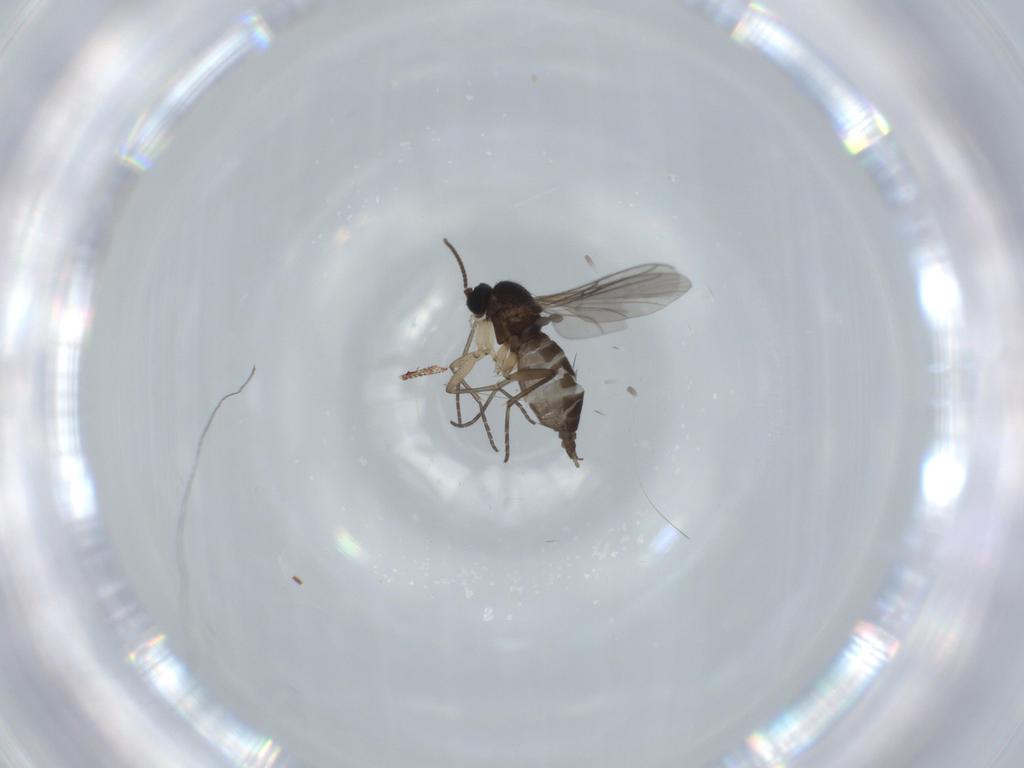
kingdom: Animalia
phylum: Arthropoda
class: Insecta
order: Diptera
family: Sciaridae
